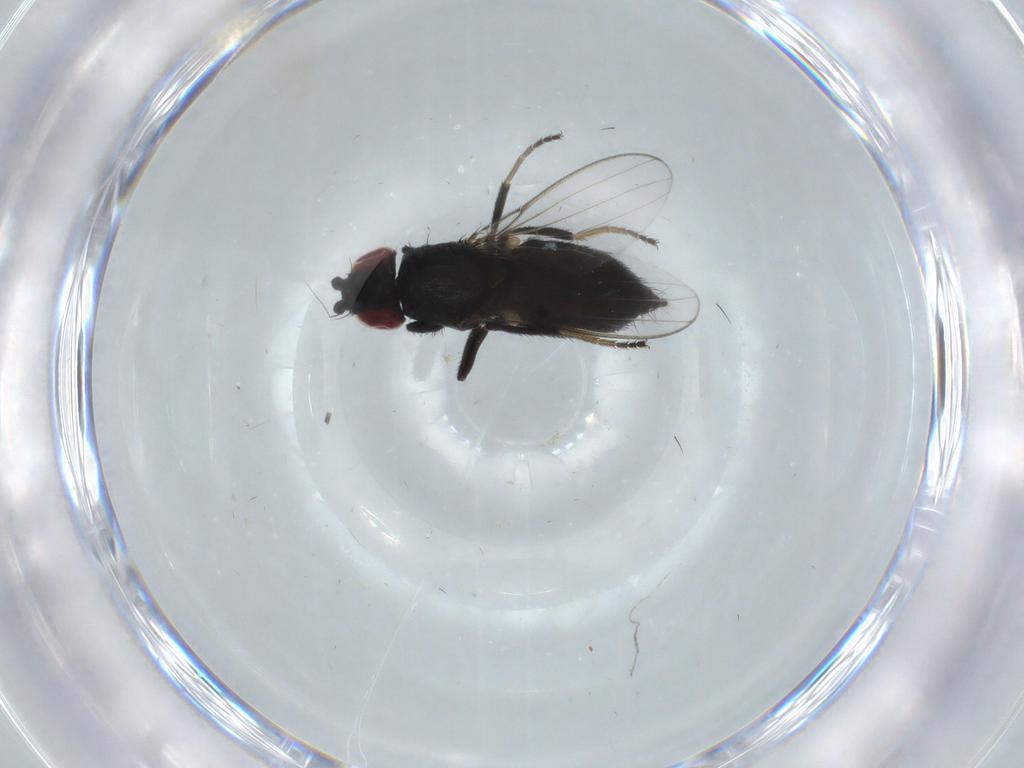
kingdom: Animalia
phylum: Arthropoda
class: Insecta
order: Diptera
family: Milichiidae
